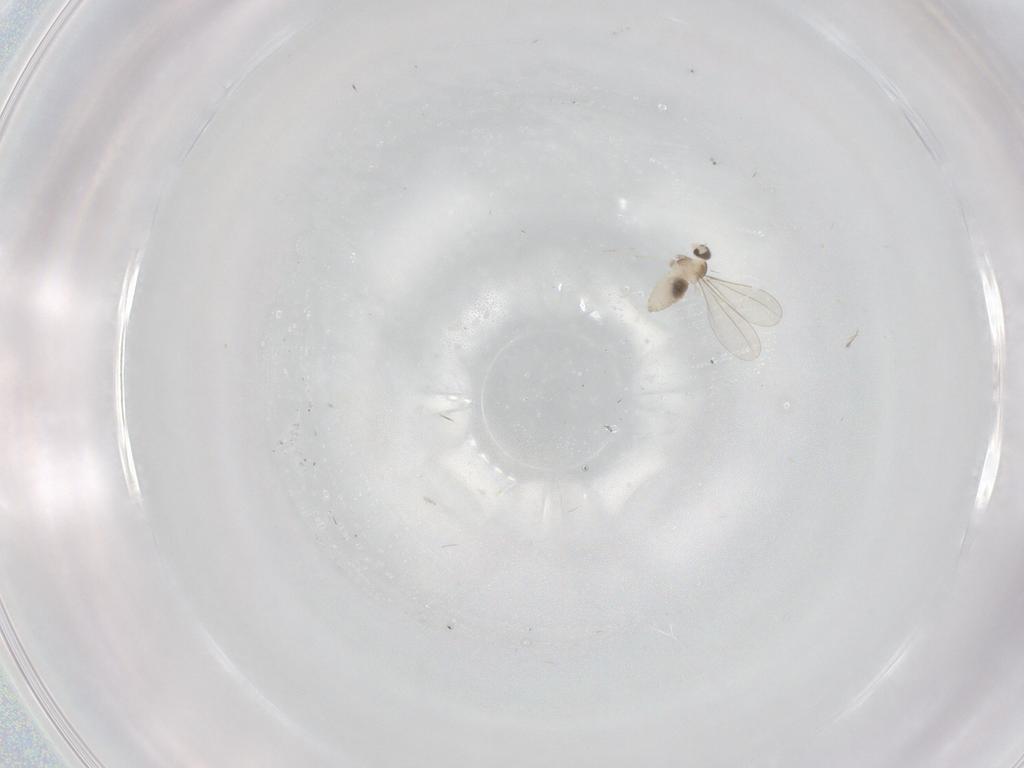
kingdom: Animalia
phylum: Arthropoda
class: Insecta
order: Diptera
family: Cecidomyiidae
